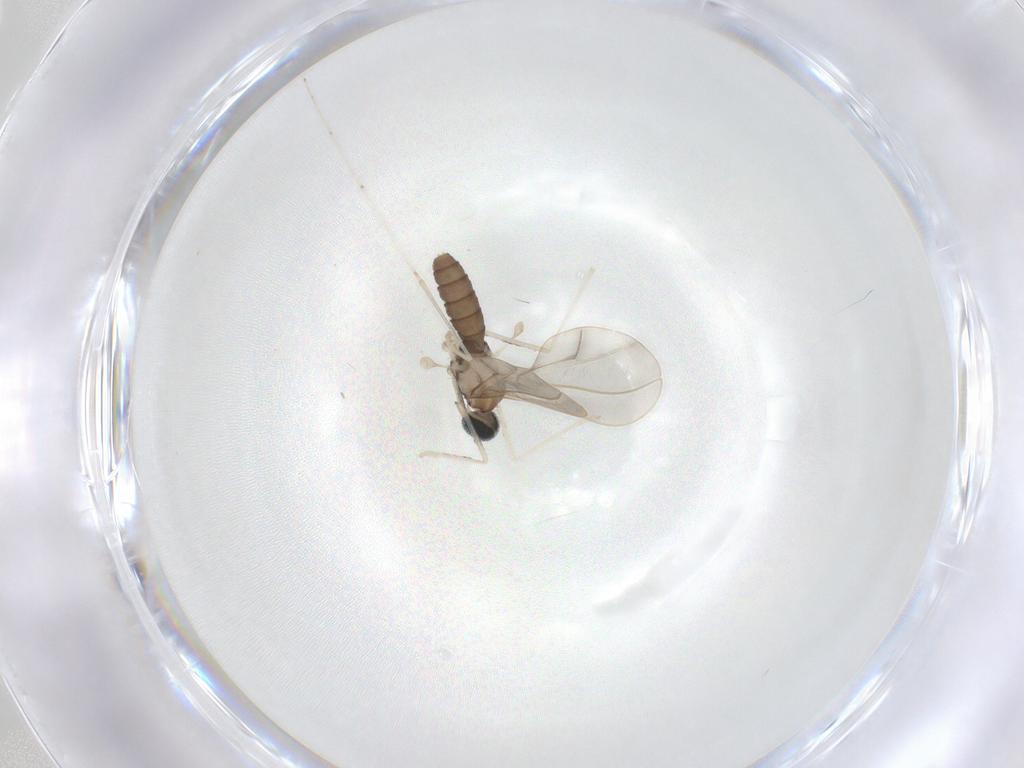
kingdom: Animalia
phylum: Arthropoda
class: Insecta
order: Diptera
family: Cecidomyiidae
